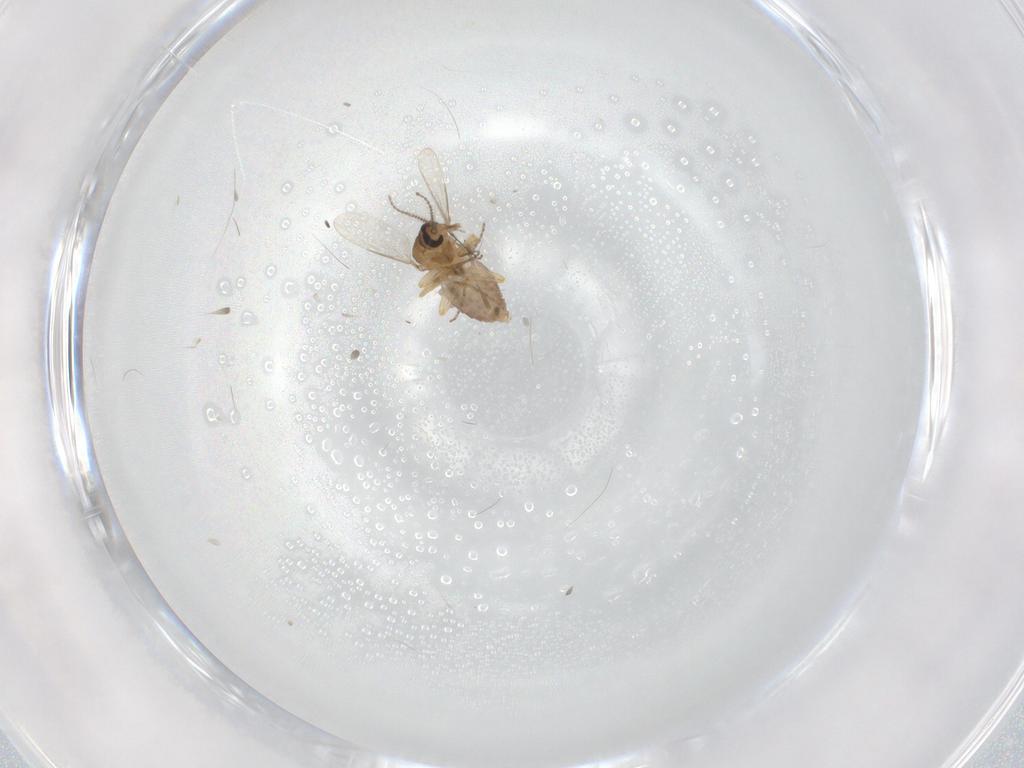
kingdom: Animalia
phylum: Arthropoda
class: Insecta
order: Diptera
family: Ceratopogonidae
